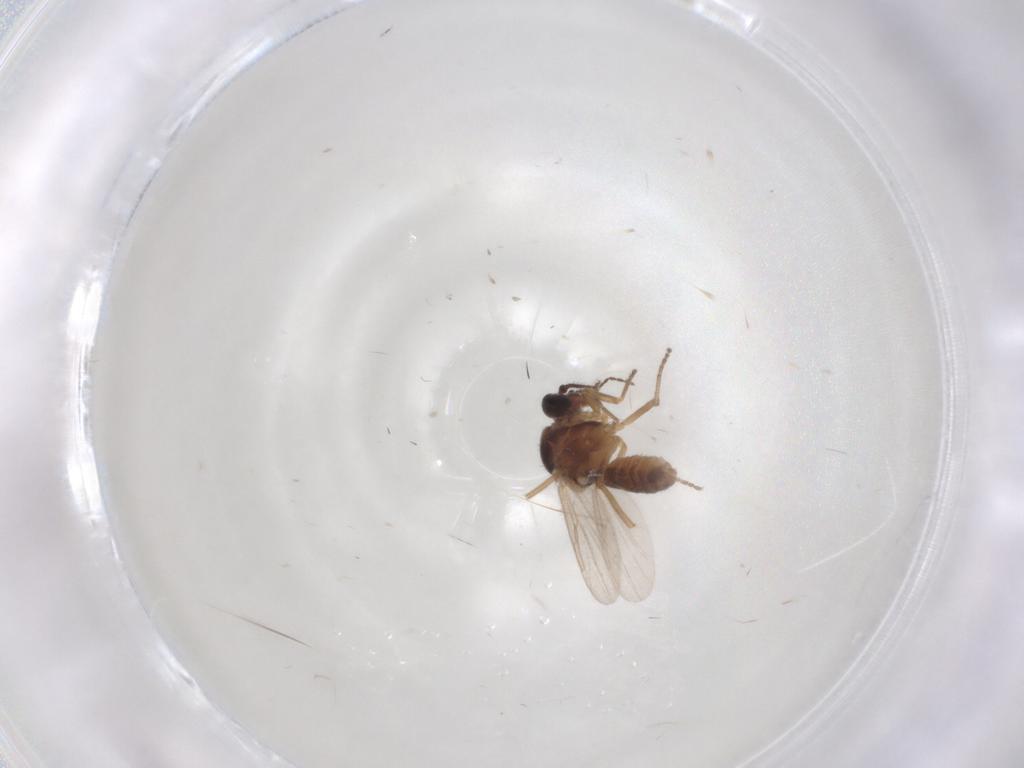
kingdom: Animalia
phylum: Arthropoda
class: Insecta
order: Diptera
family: Ceratopogonidae
